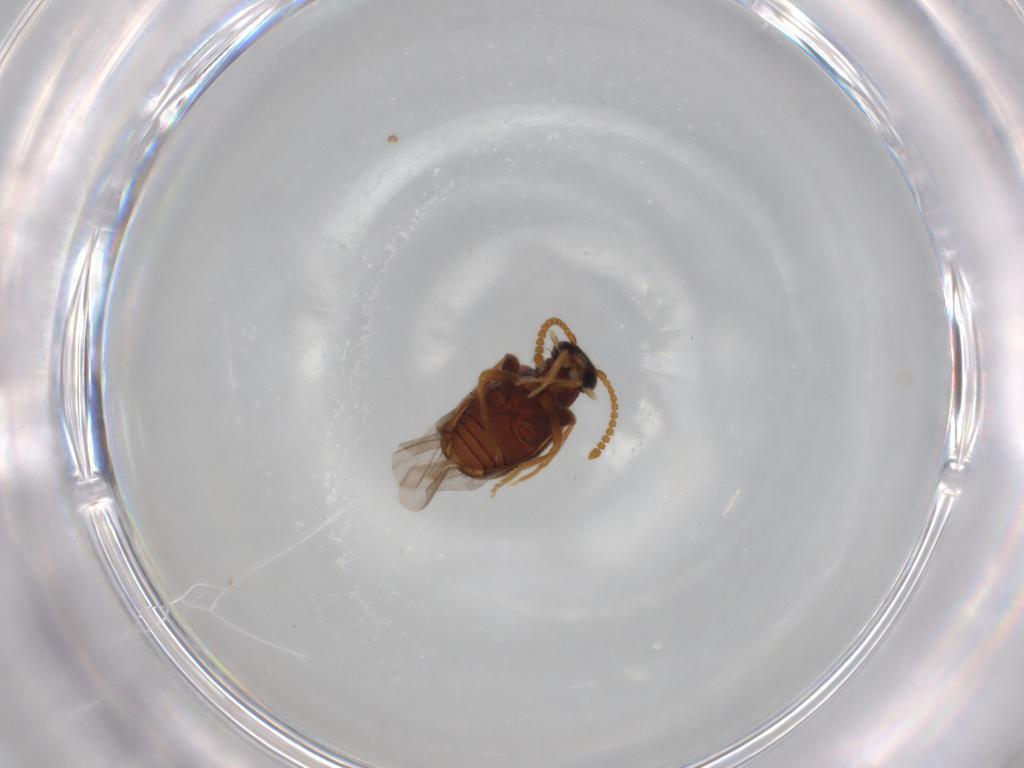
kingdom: Animalia
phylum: Arthropoda
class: Insecta
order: Coleoptera
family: Aderidae
